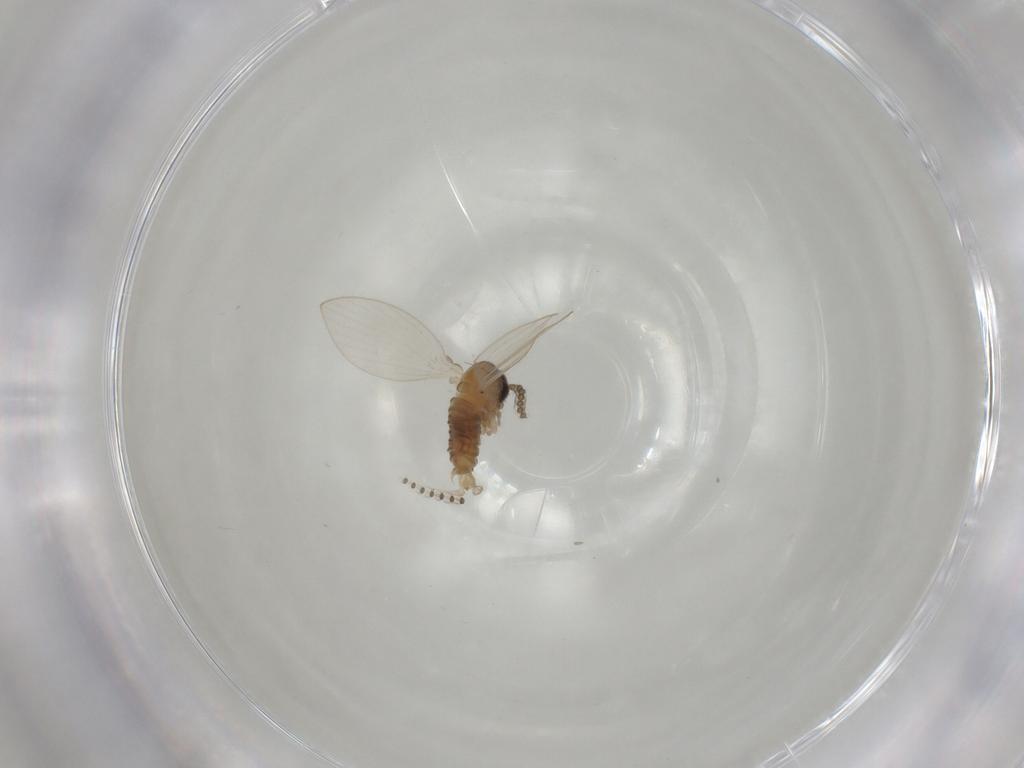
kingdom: Animalia
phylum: Arthropoda
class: Insecta
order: Diptera
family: Psychodidae
